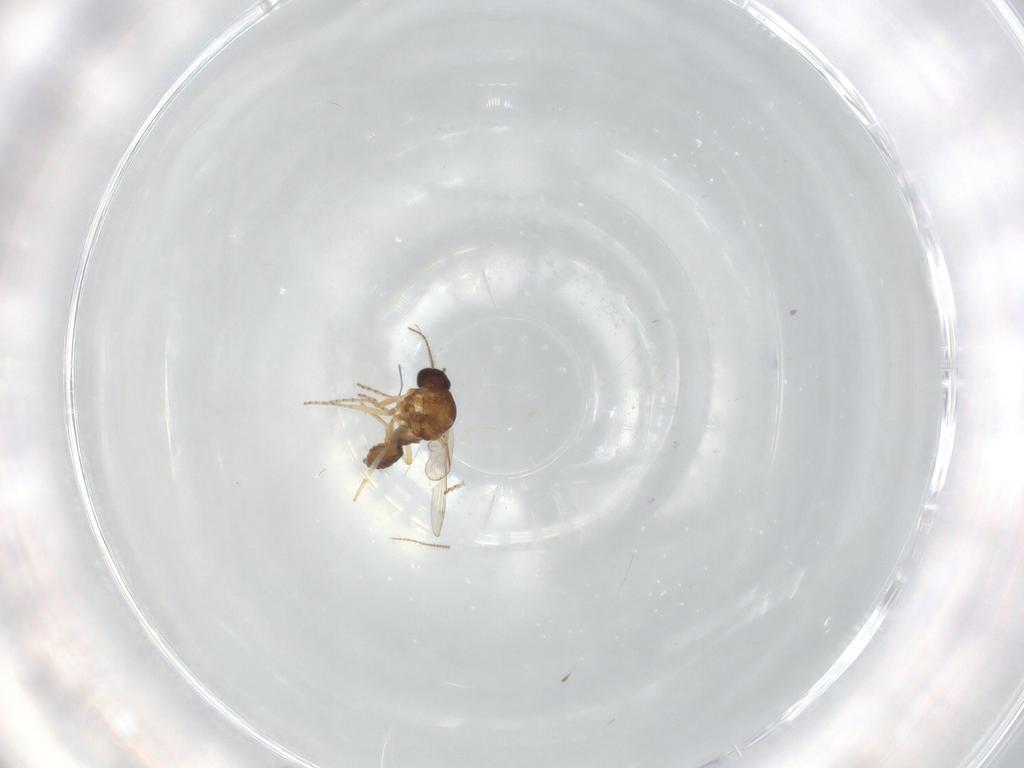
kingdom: Animalia
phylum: Arthropoda
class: Insecta
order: Diptera
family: Ceratopogonidae
